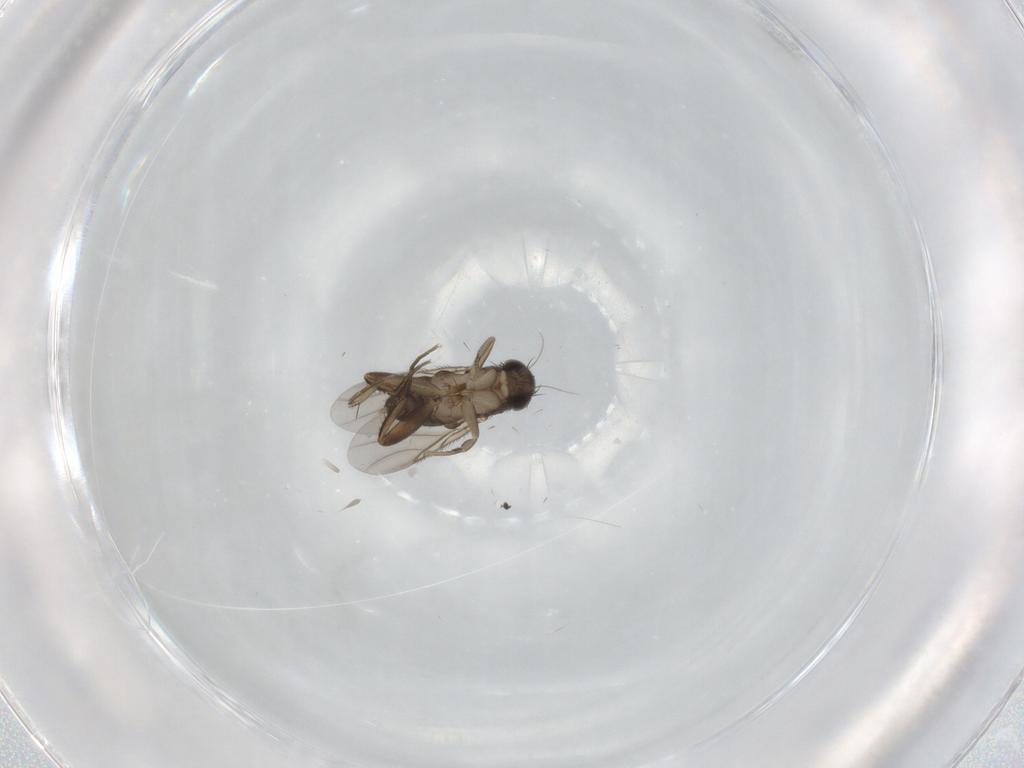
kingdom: Animalia
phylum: Arthropoda
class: Insecta
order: Diptera
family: Phoridae
